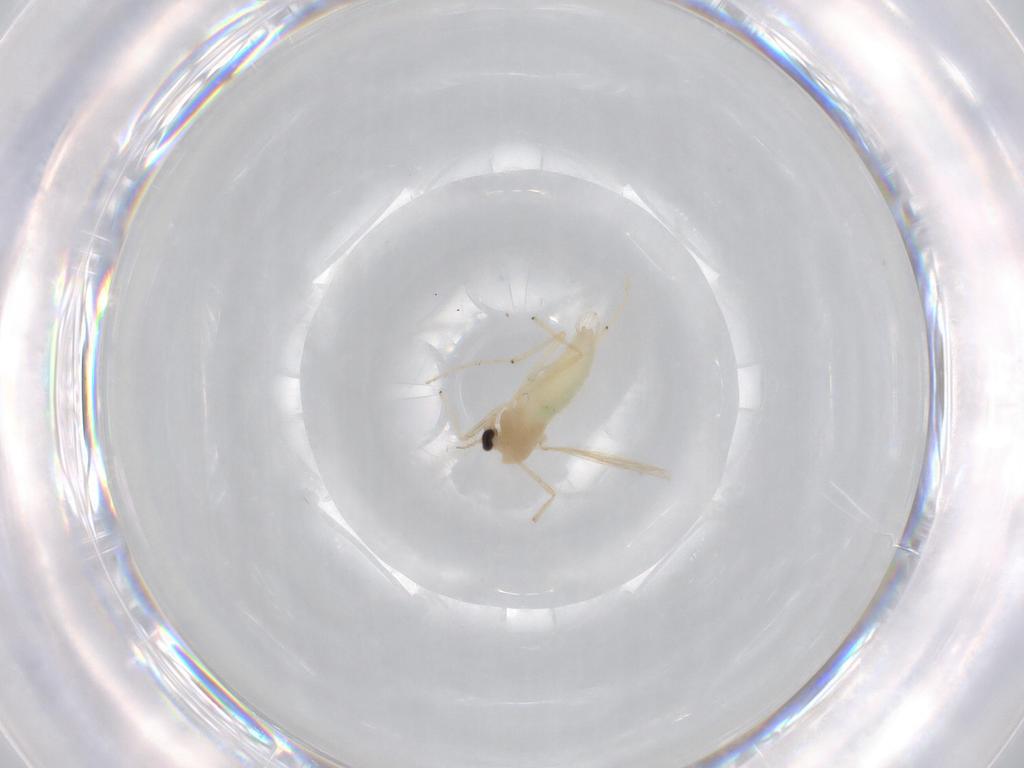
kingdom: Animalia
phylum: Arthropoda
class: Insecta
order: Diptera
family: Chironomidae
